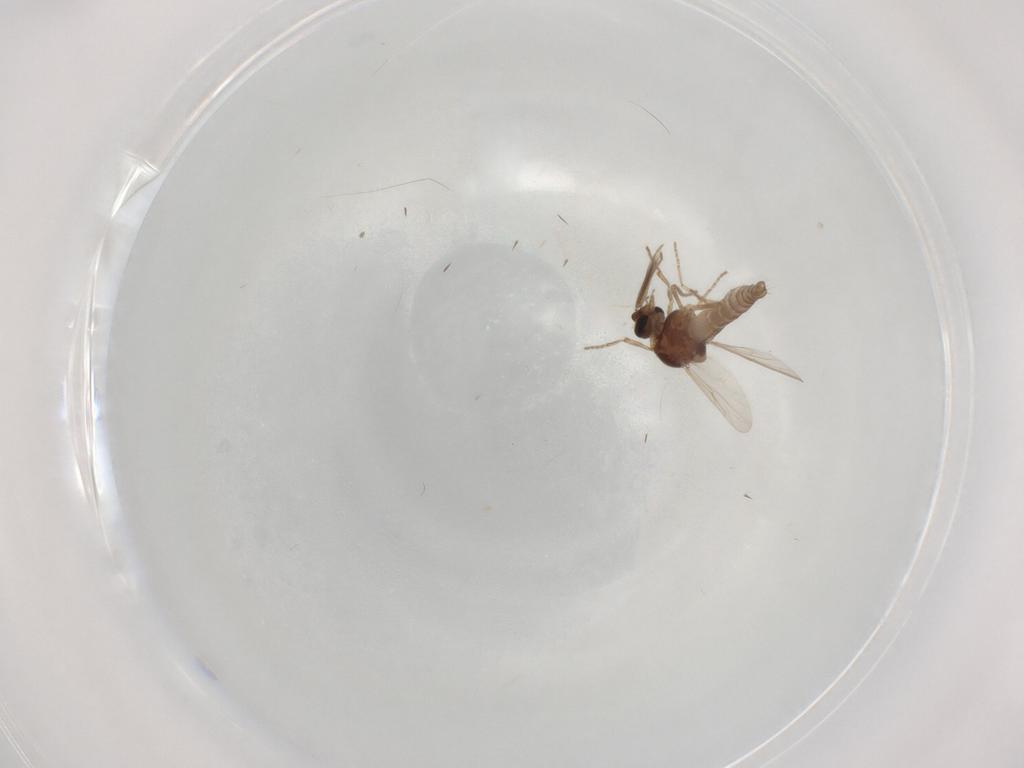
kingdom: Animalia
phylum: Arthropoda
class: Insecta
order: Diptera
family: Ceratopogonidae
